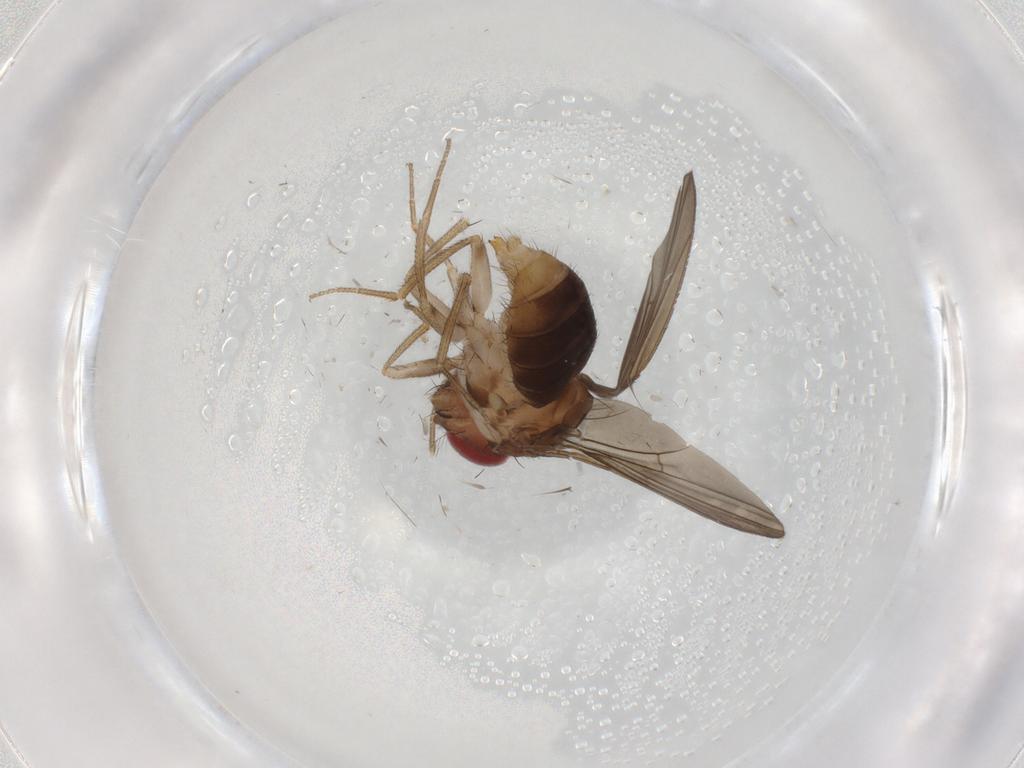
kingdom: Animalia
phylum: Arthropoda
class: Insecta
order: Diptera
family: Drosophilidae
